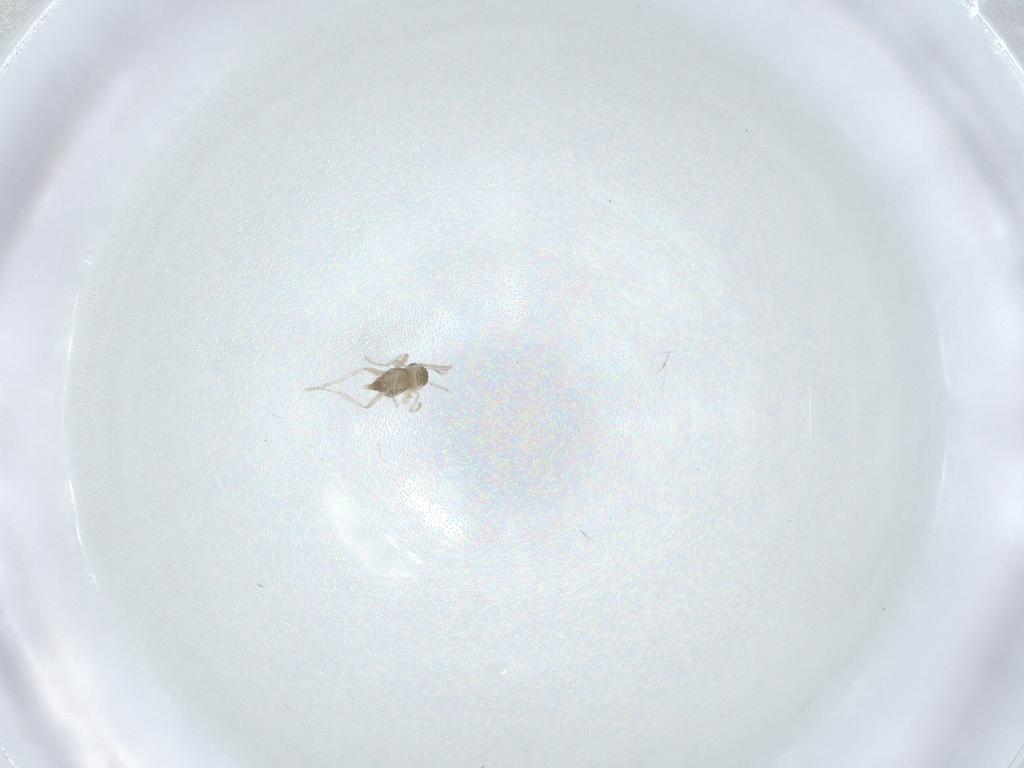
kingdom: Animalia
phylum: Arthropoda
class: Insecta
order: Diptera
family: Chironomidae
